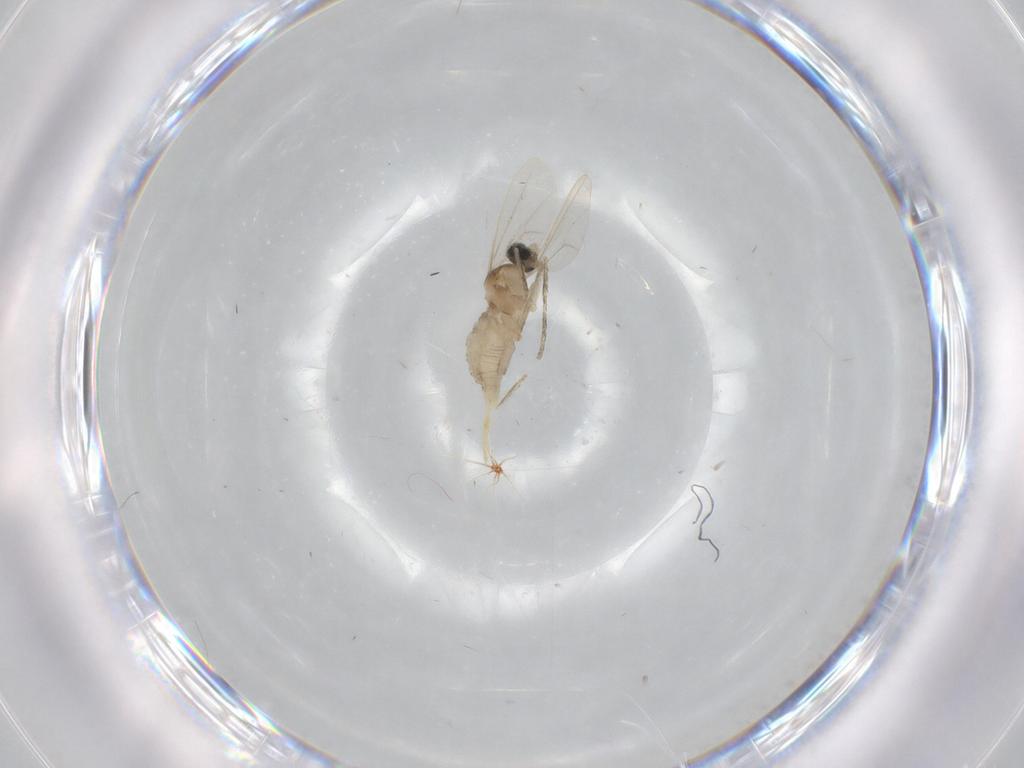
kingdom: Animalia
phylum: Arthropoda
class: Insecta
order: Diptera
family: Cecidomyiidae
